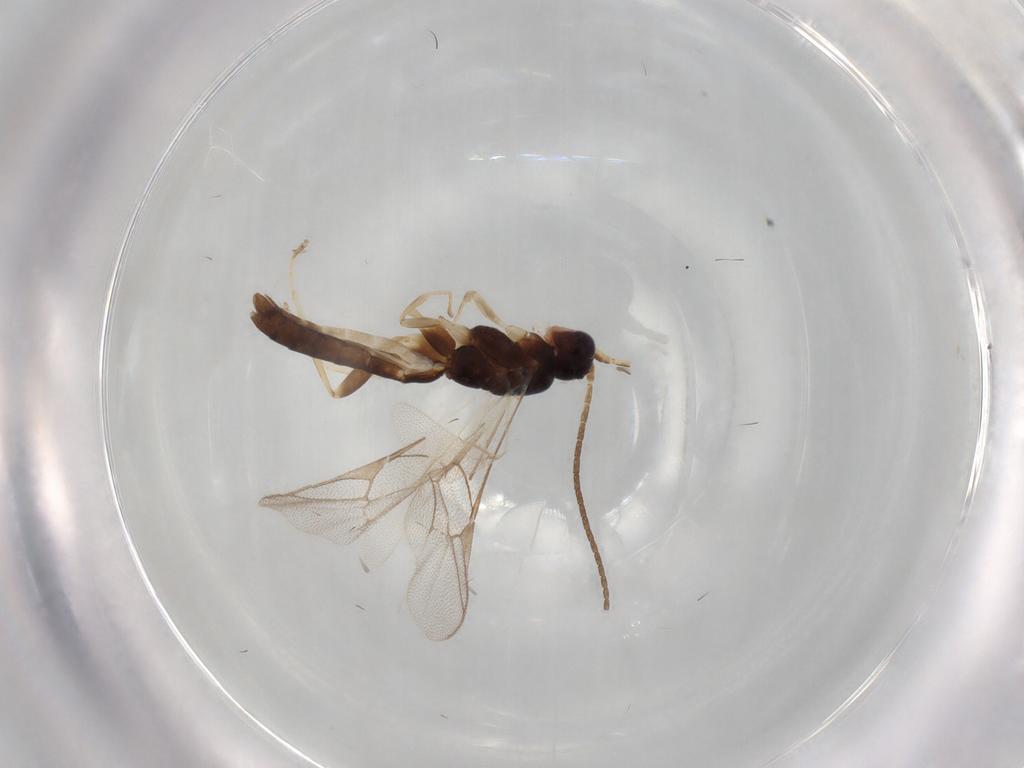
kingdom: Animalia
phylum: Arthropoda
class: Insecta
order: Hymenoptera
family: Ichneumonidae
